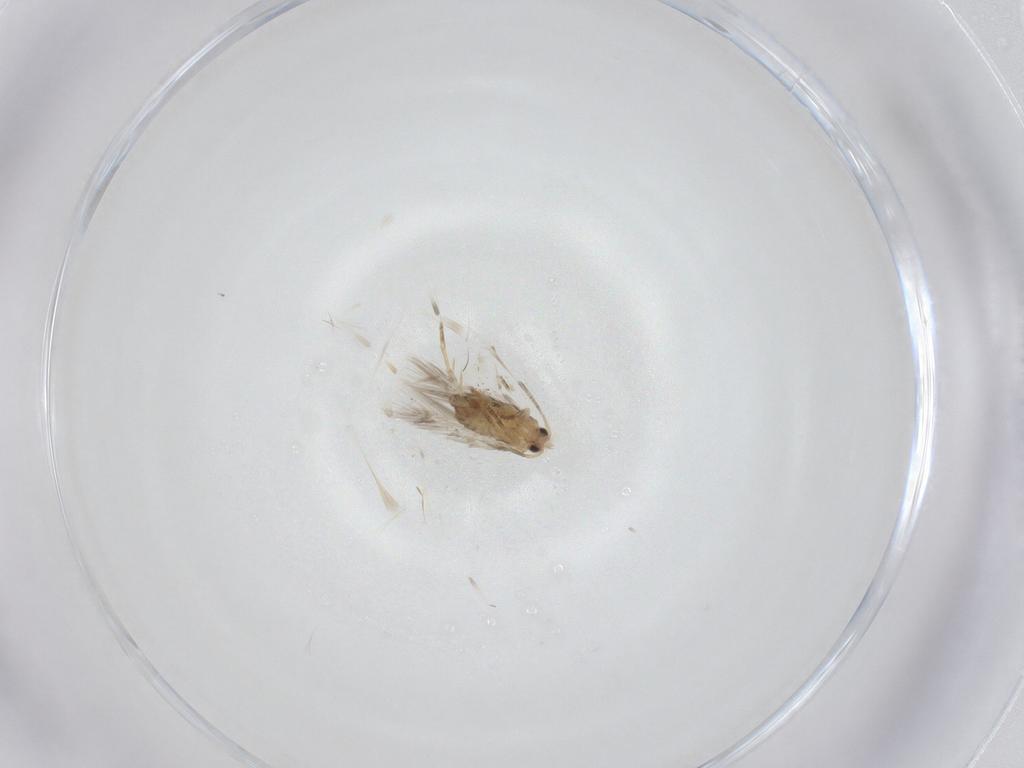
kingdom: Animalia
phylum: Arthropoda
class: Insecta
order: Lepidoptera
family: Nepticulidae
